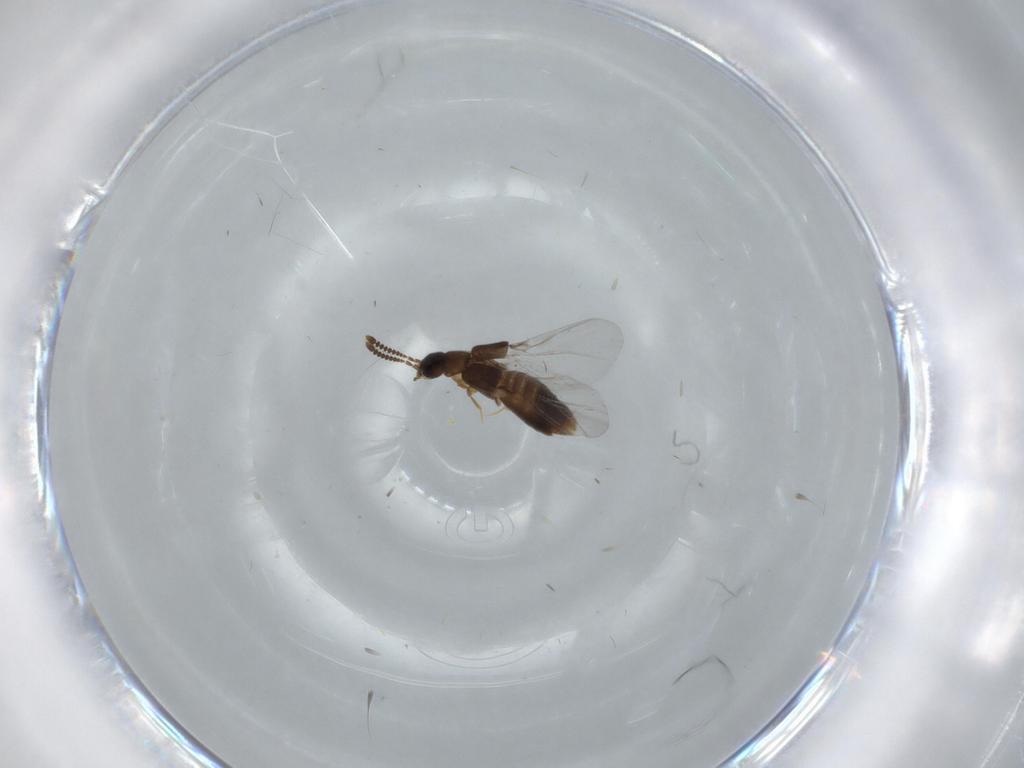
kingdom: Animalia
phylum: Arthropoda
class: Insecta
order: Coleoptera
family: Staphylinidae
